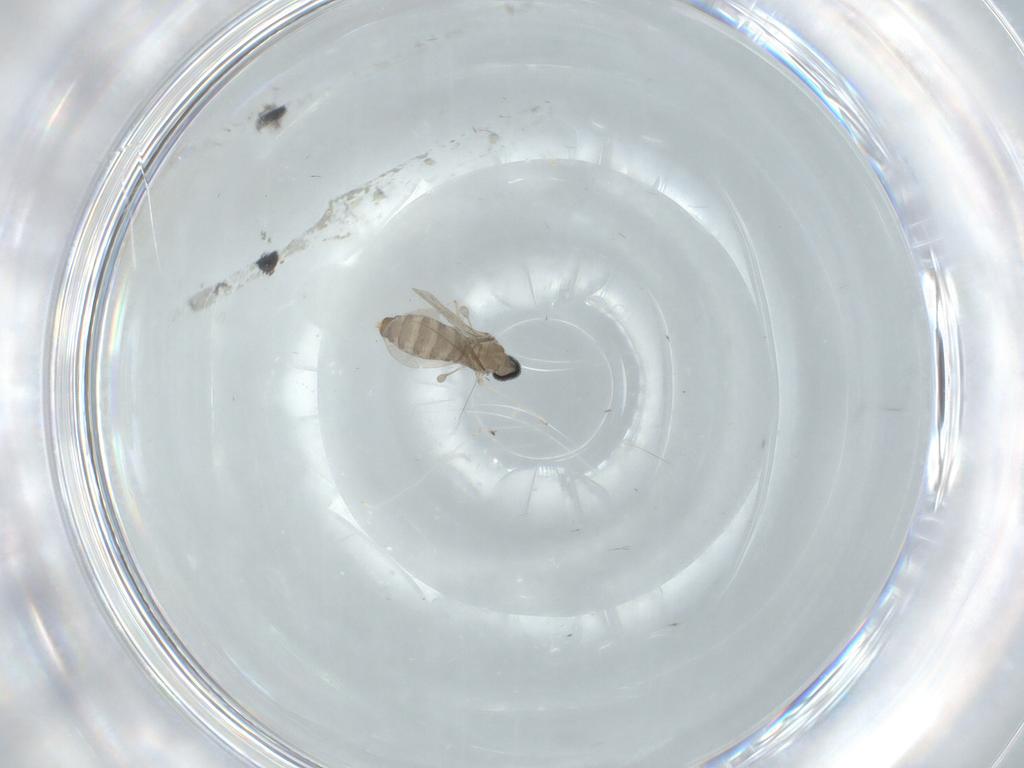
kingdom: Animalia
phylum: Arthropoda
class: Insecta
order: Diptera
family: Cecidomyiidae
